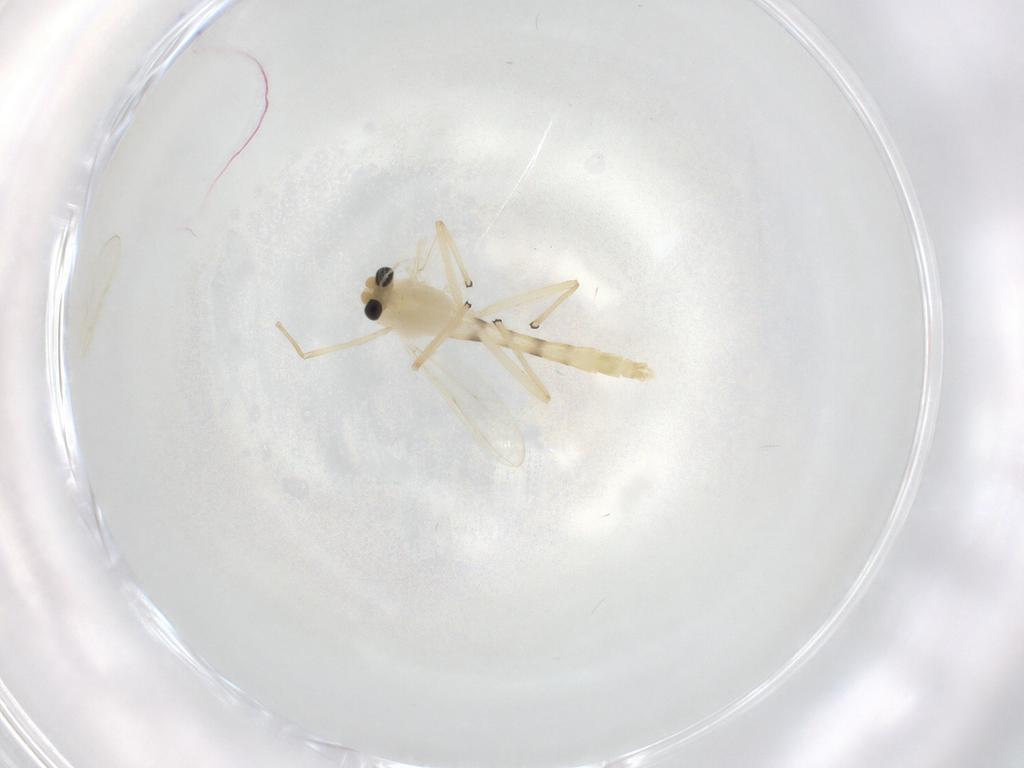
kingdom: Animalia
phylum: Arthropoda
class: Insecta
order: Diptera
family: Chironomidae
